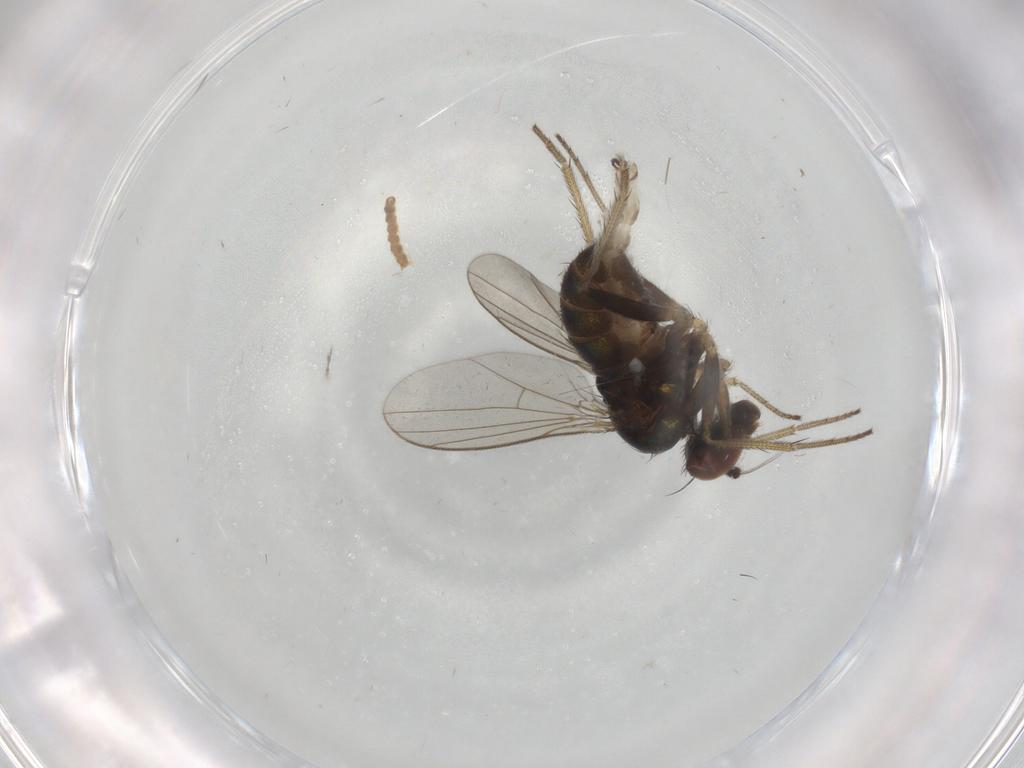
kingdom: Animalia
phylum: Arthropoda
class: Insecta
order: Diptera
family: Dolichopodidae
